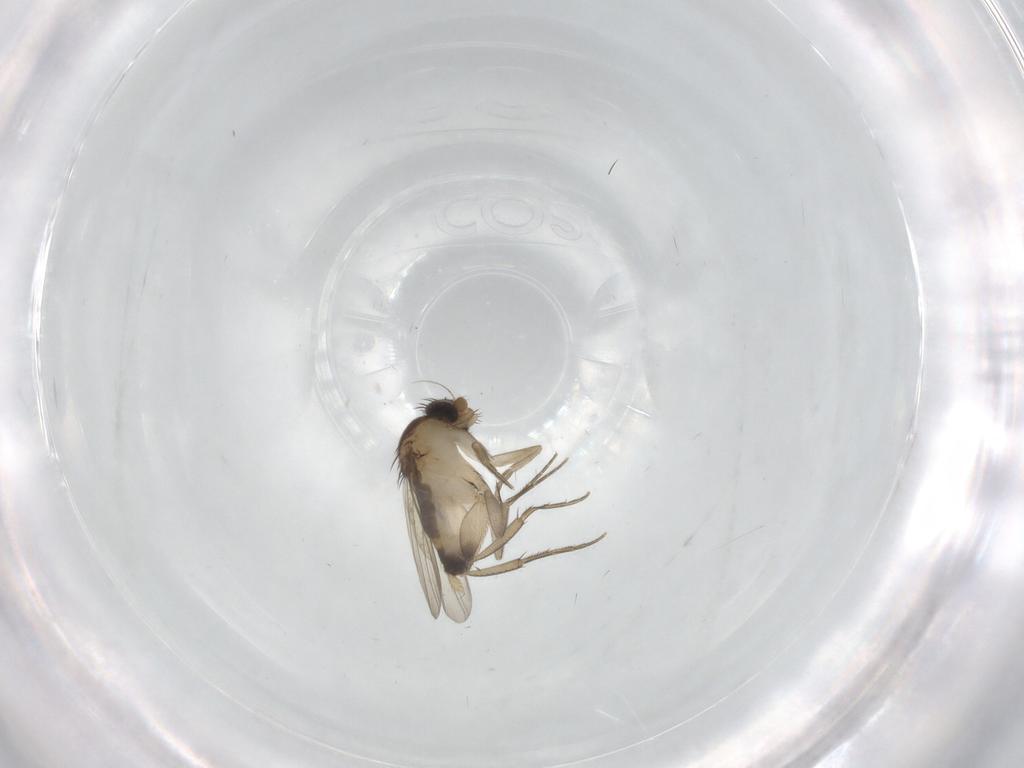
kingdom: Animalia
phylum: Arthropoda
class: Insecta
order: Diptera
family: Phoridae
